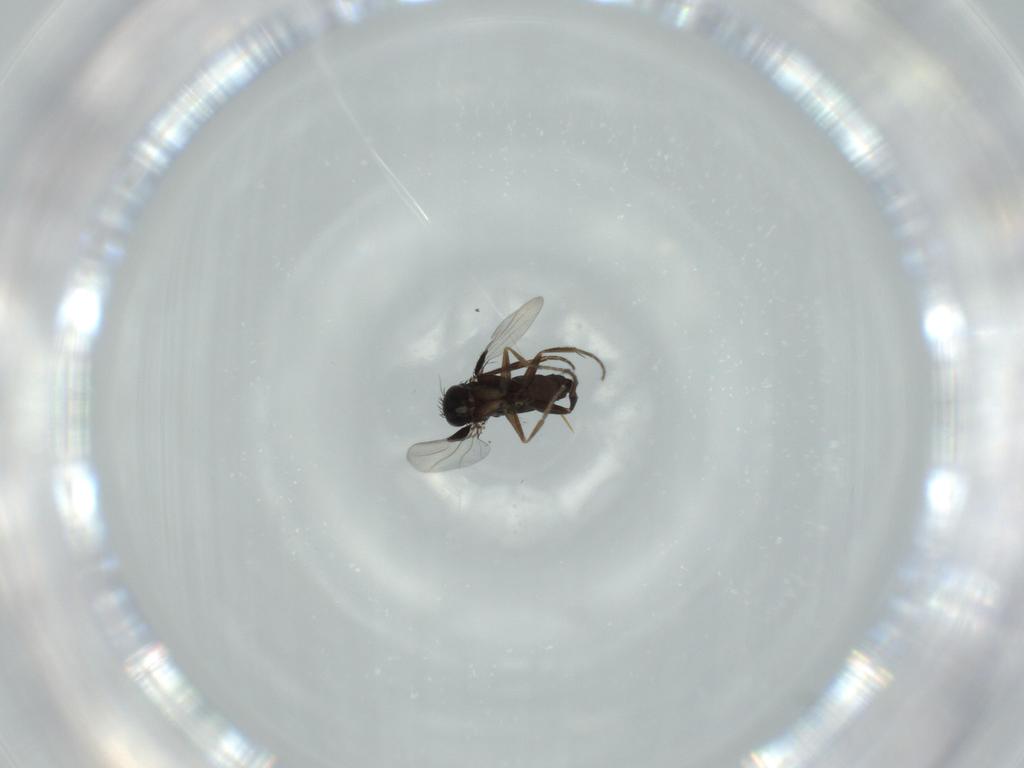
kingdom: Animalia
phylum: Arthropoda
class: Insecta
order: Diptera
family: Phoridae
